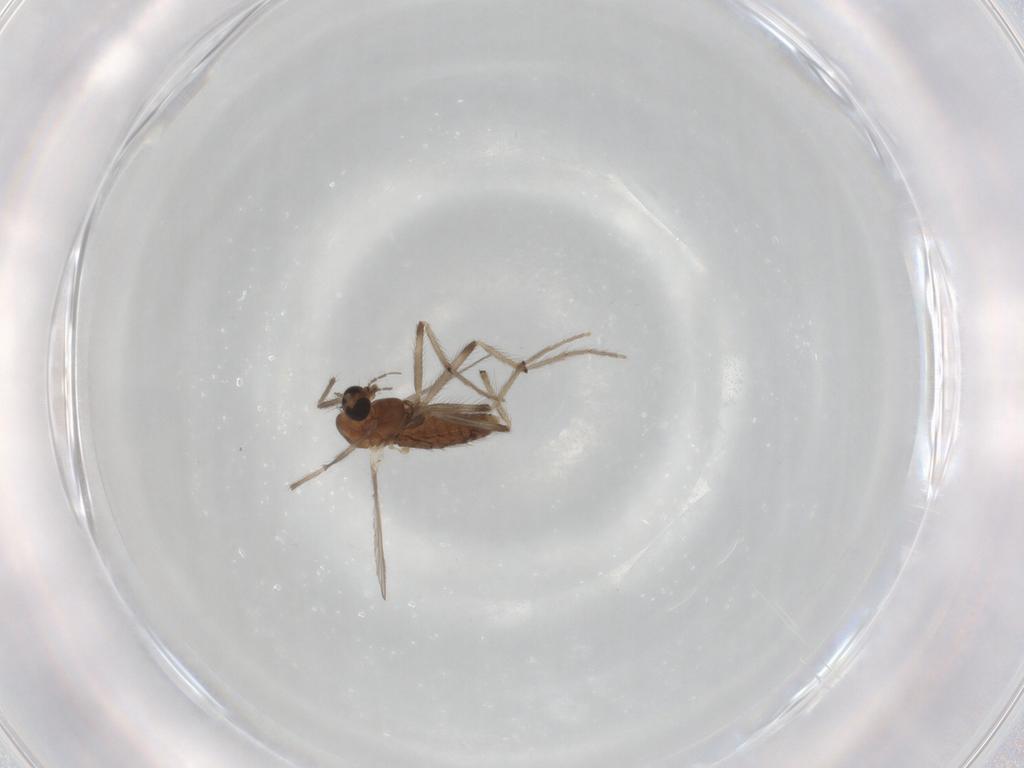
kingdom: Animalia
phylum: Arthropoda
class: Insecta
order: Diptera
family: Chironomidae
